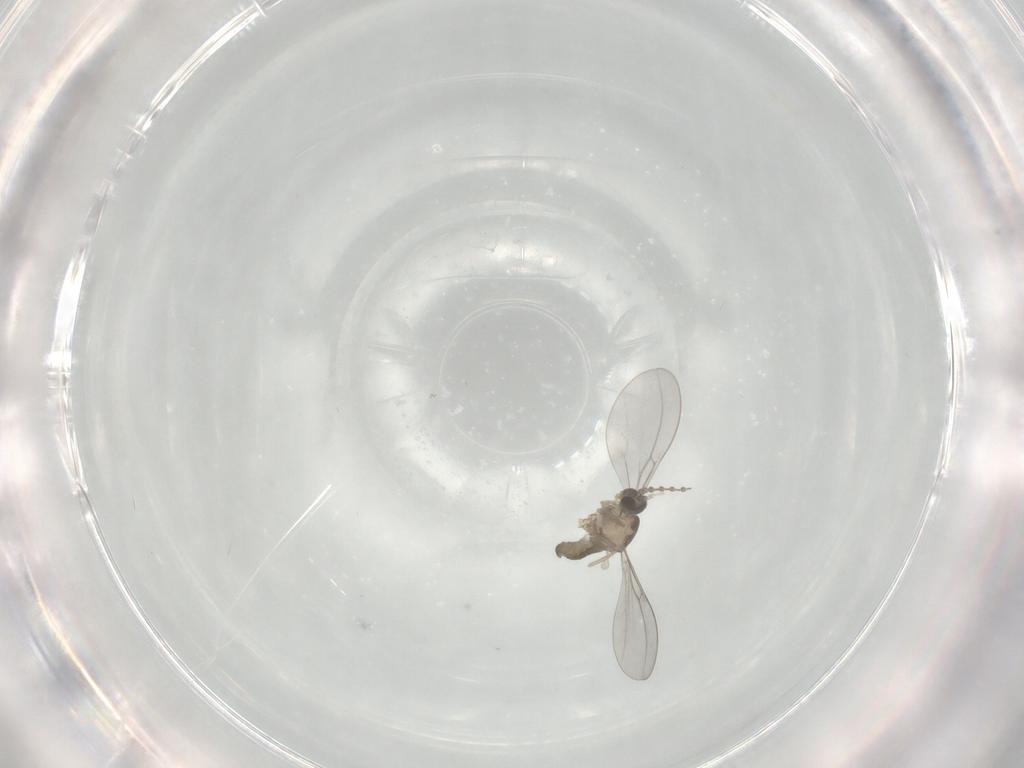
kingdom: Animalia
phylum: Arthropoda
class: Insecta
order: Diptera
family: Cecidomyiidae
